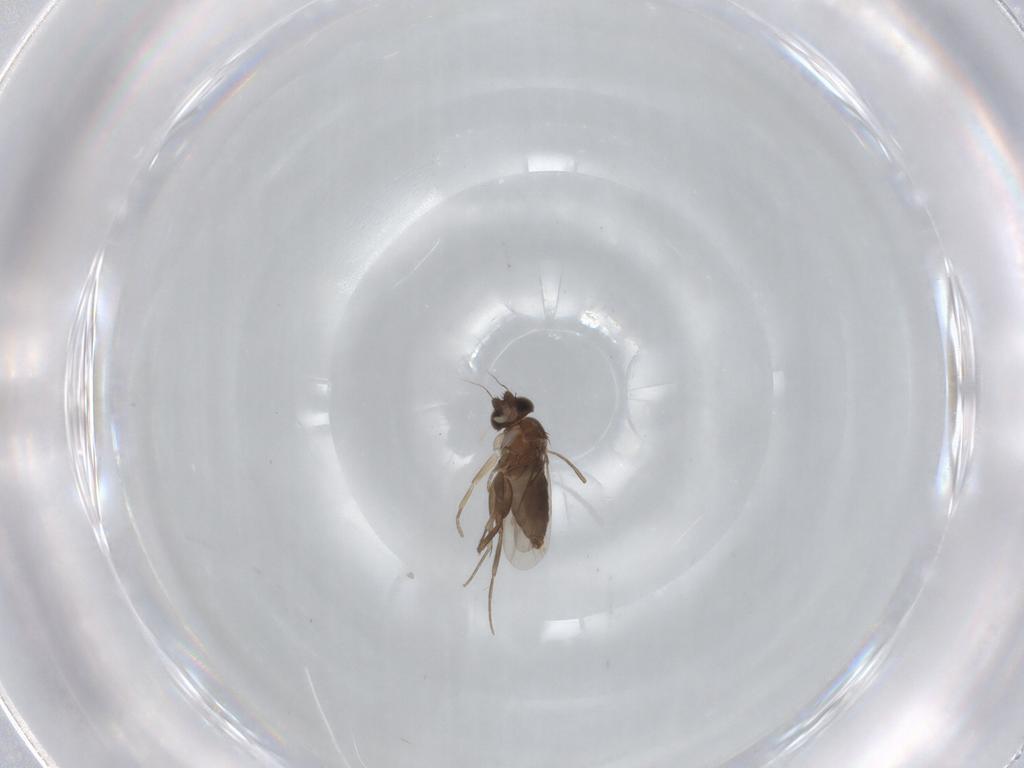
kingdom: Animalia
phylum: Arthropoda
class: Insecta
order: Diptera
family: Phoridae
